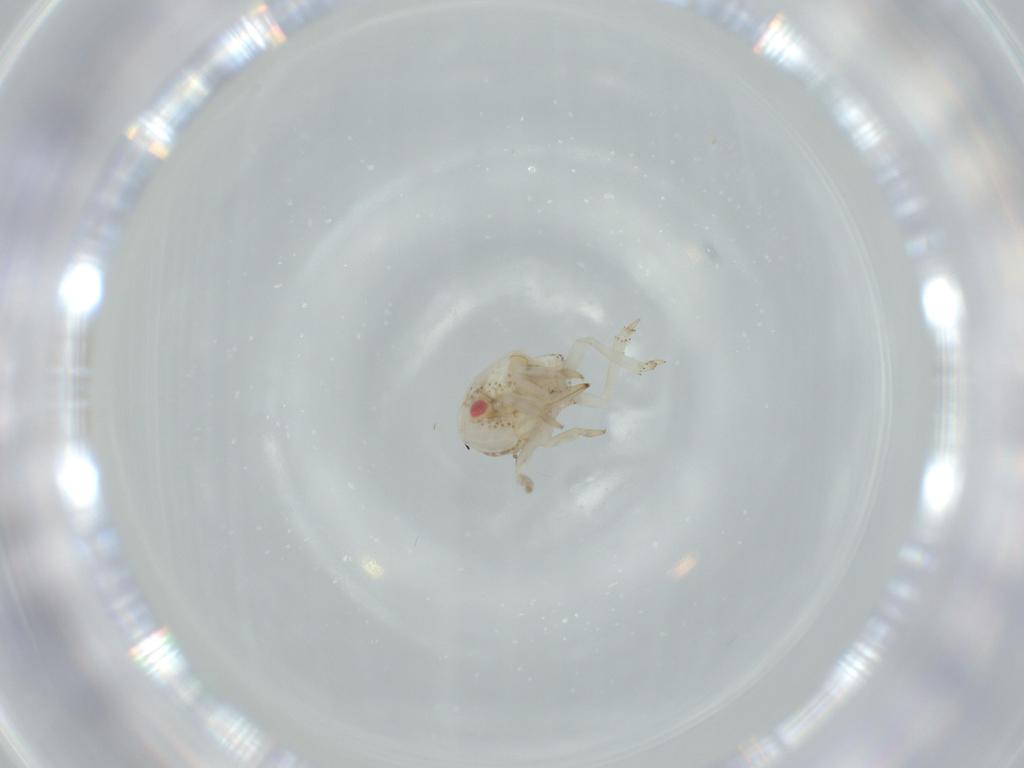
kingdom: Animalia
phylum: Arthropoda
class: Insecta
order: Hemiptera
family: Acanaloniidae
